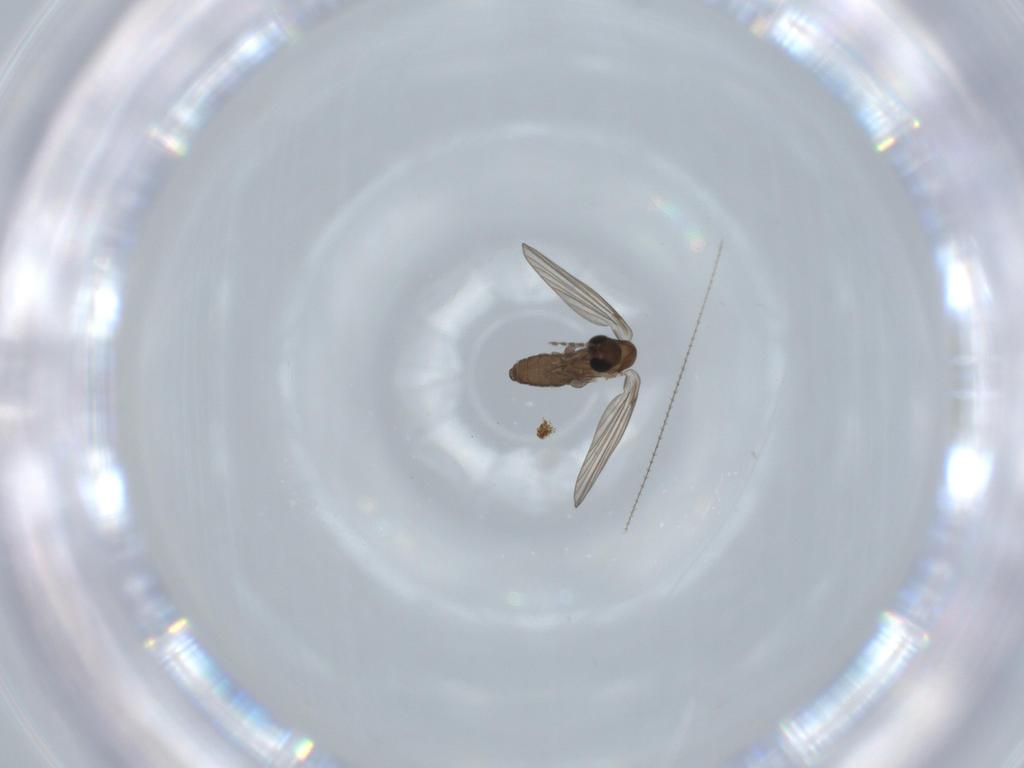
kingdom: Animalia
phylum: Arthropoda
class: Insecta
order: Diptera
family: Psychodidae
